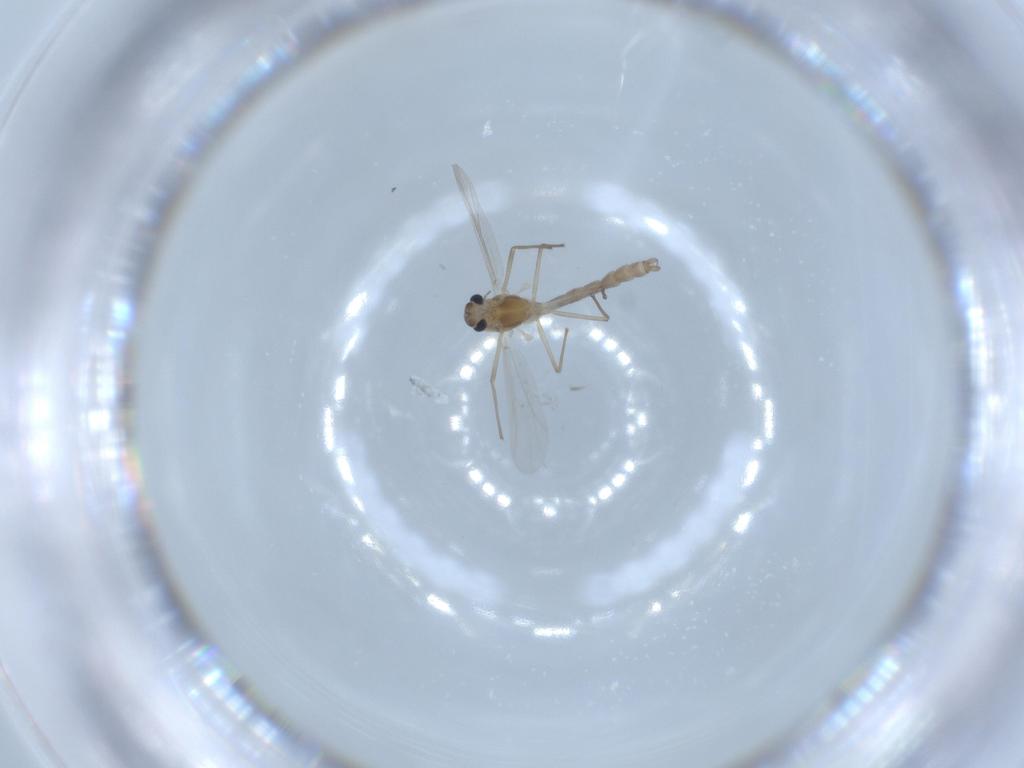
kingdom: Animalia
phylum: Arthropoda
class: Insecta
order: Diptera
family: Chironomidae
